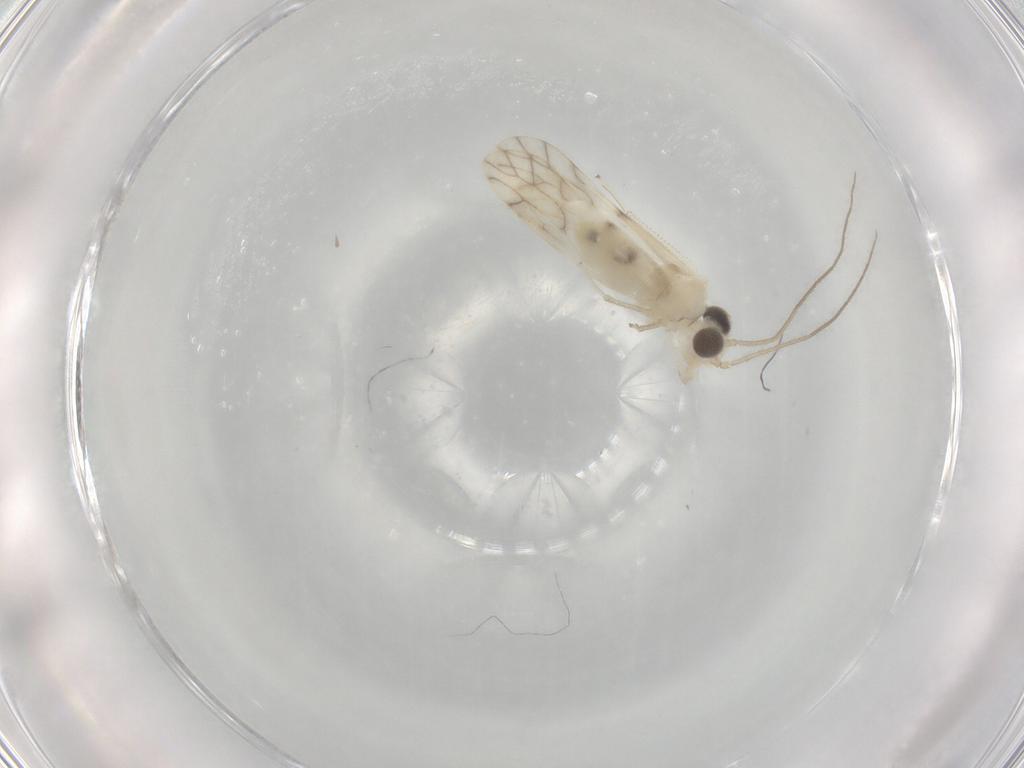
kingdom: Animalia
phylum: Arthropoda
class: Insecta
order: Psocodea
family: Caeciliusidae
